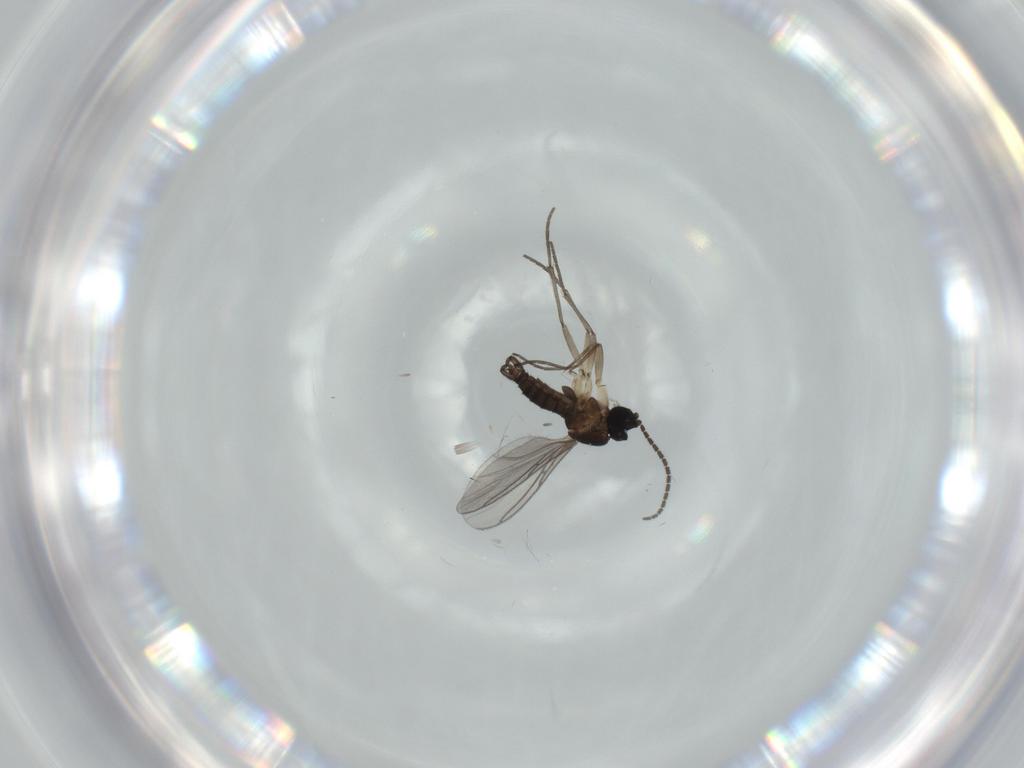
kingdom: Animalia
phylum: Arthropoda
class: Insecta
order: Diptera
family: Sciaridae
